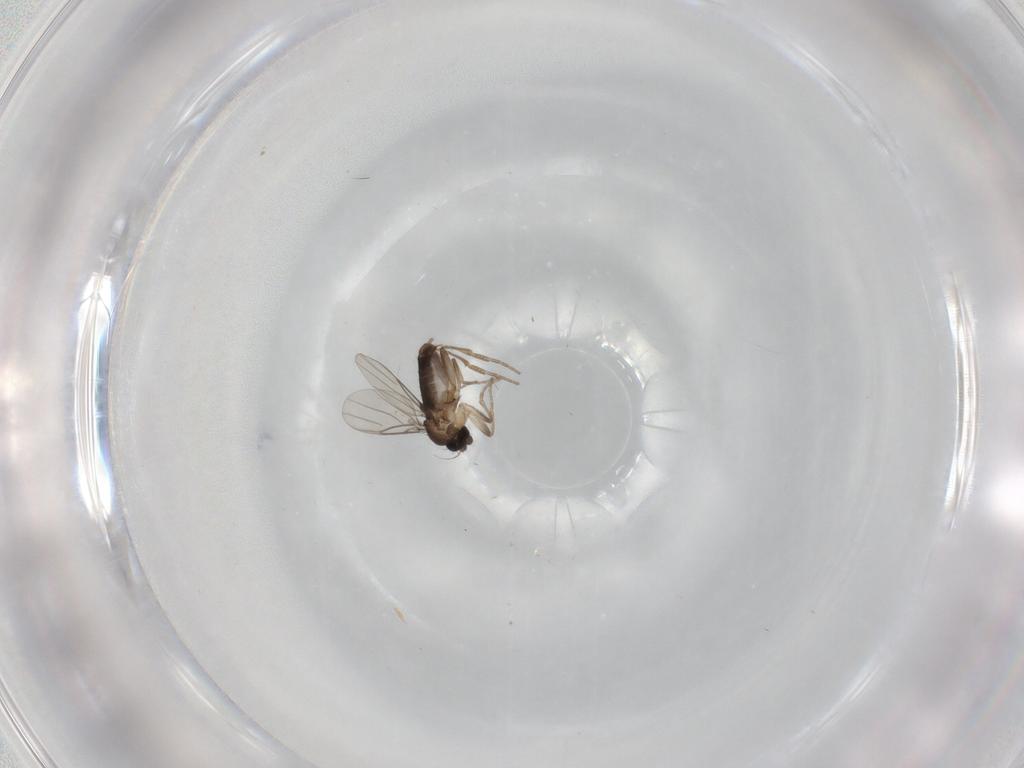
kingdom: Animalia
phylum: Arthropoda
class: Insecta
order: Diptera
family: Phoridae
